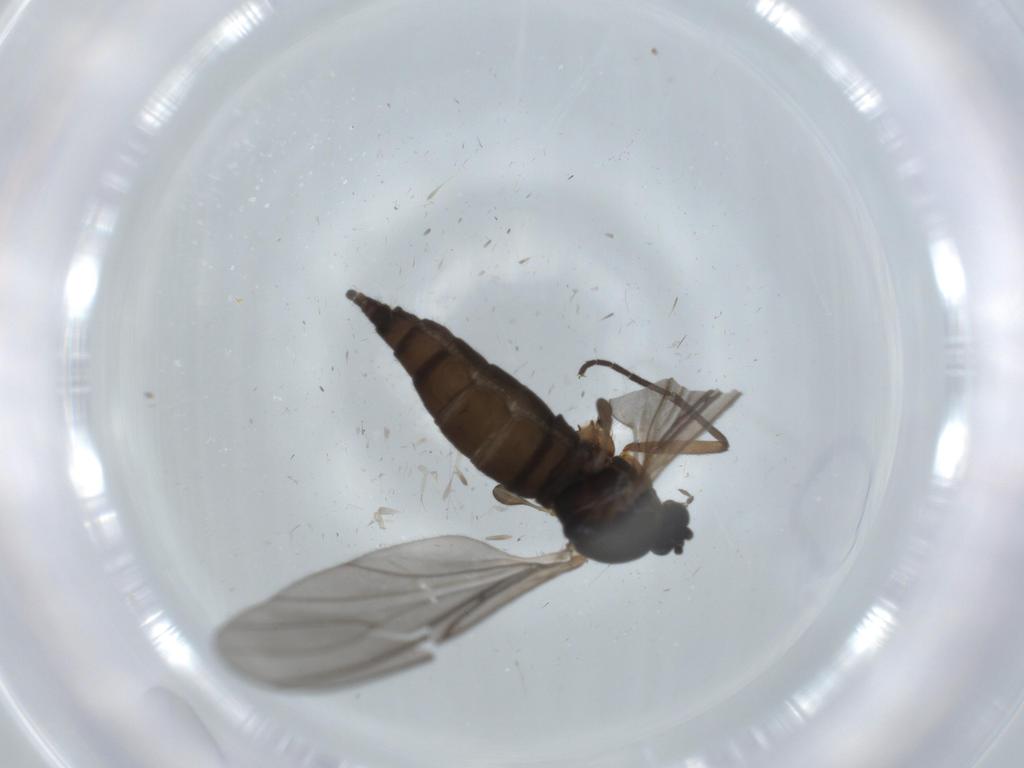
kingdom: Animalia
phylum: Arthropoda
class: Insecta
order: Diptera
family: Sciaridae
